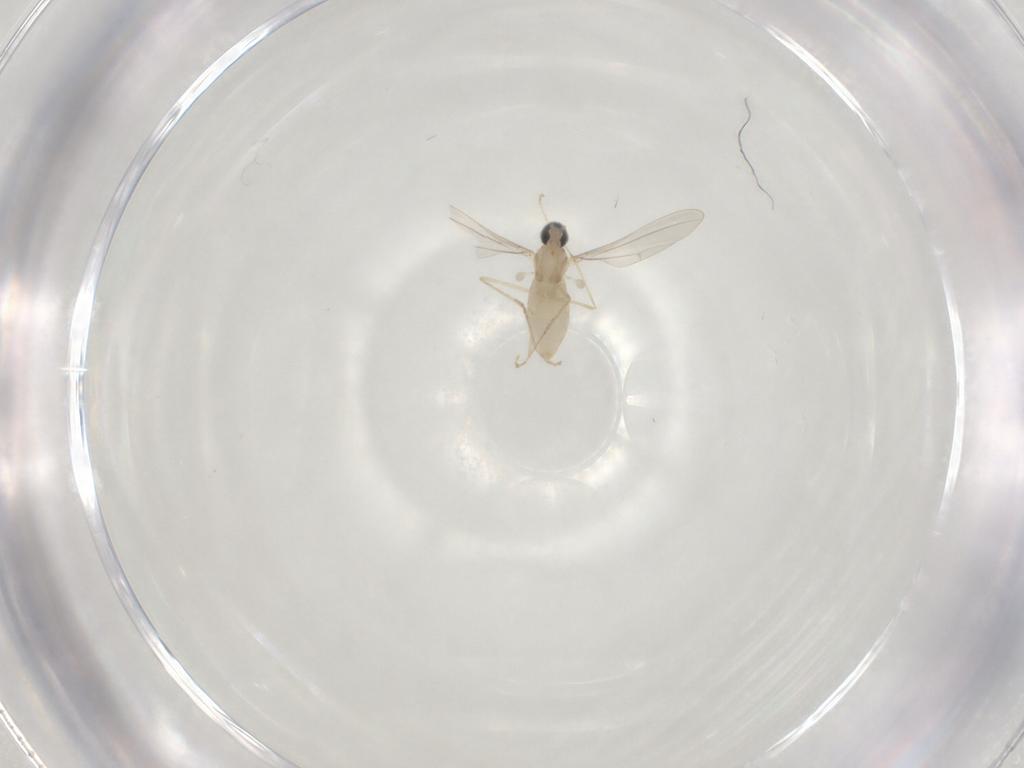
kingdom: Animalia
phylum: Arthropoda
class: Insecta
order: Diptera
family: Cecidomyiidae
